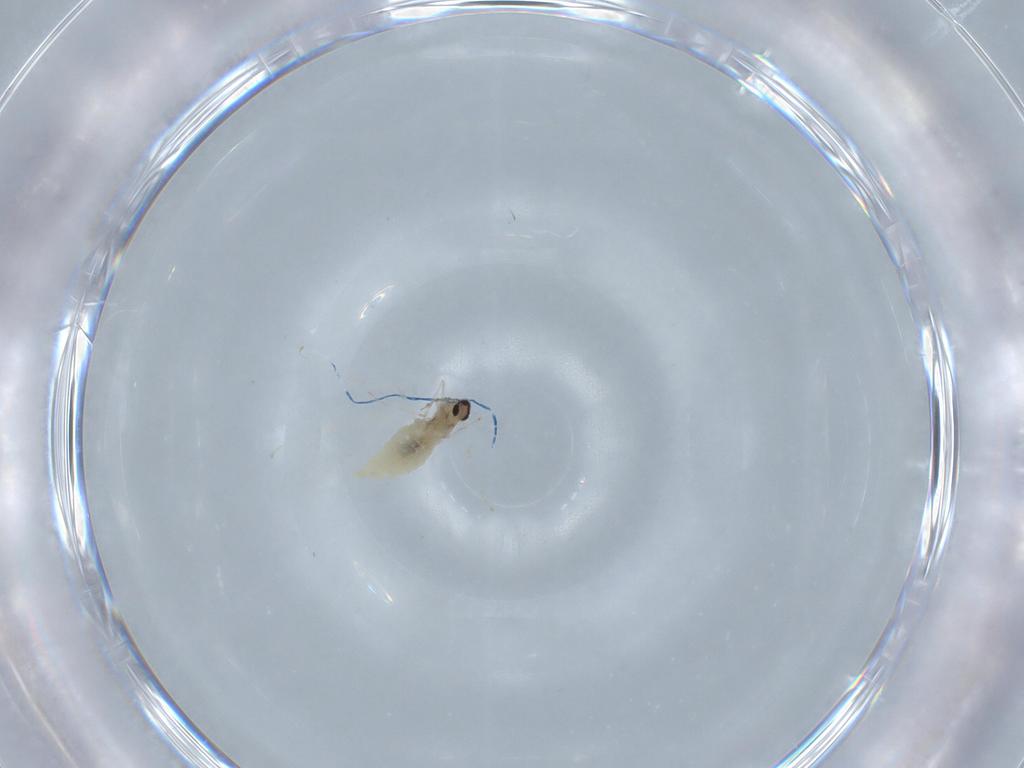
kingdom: Animalia
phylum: Arthropoda
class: Insecta
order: Diptera
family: Cecidomyiidae
